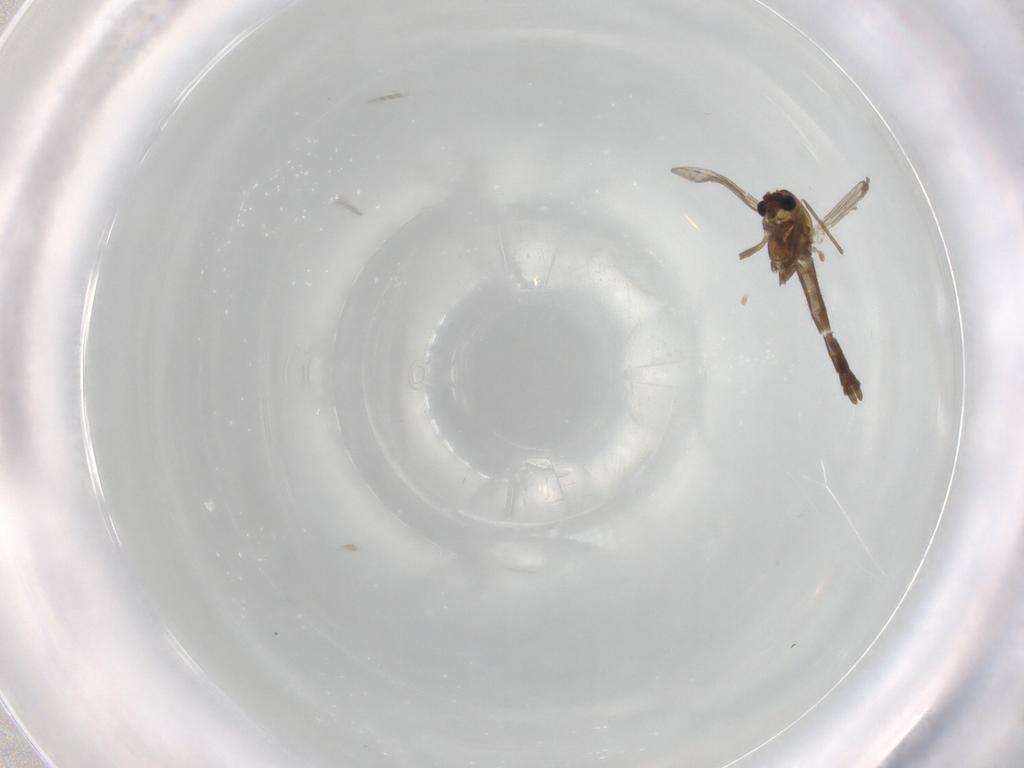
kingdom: Animalia
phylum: Arthropoda
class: Insecta
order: Diptera
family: Chironomidae
